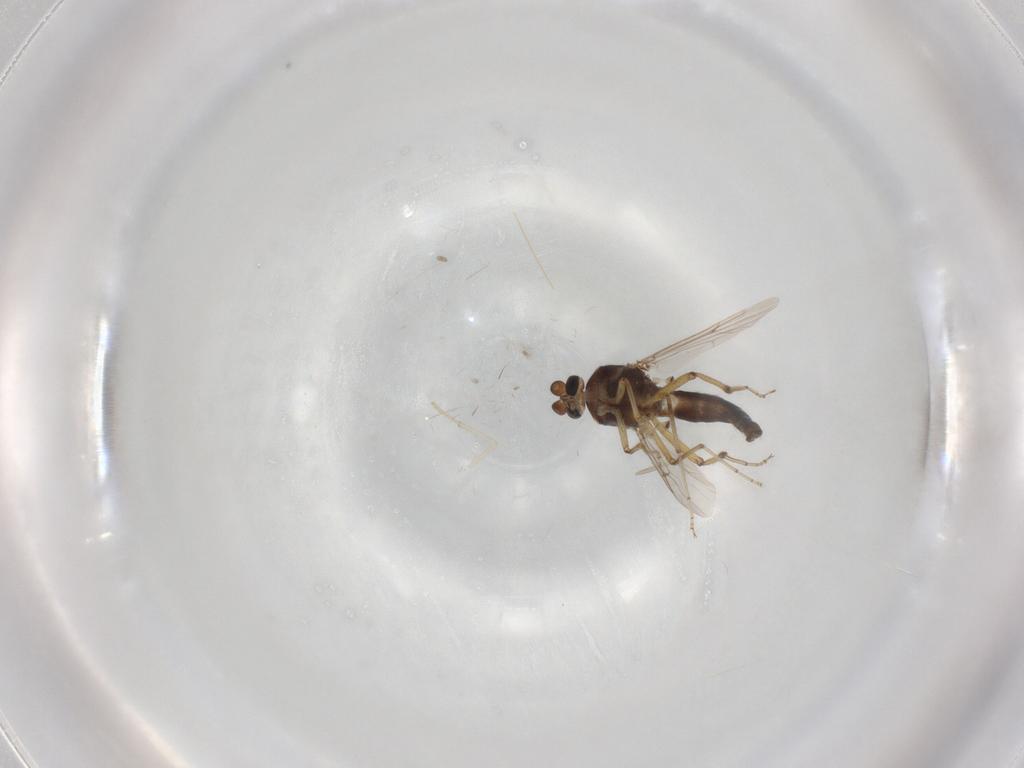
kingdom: Animalia
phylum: Arthropoda
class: Insecta
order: Diptera
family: Ceratopogonidae
